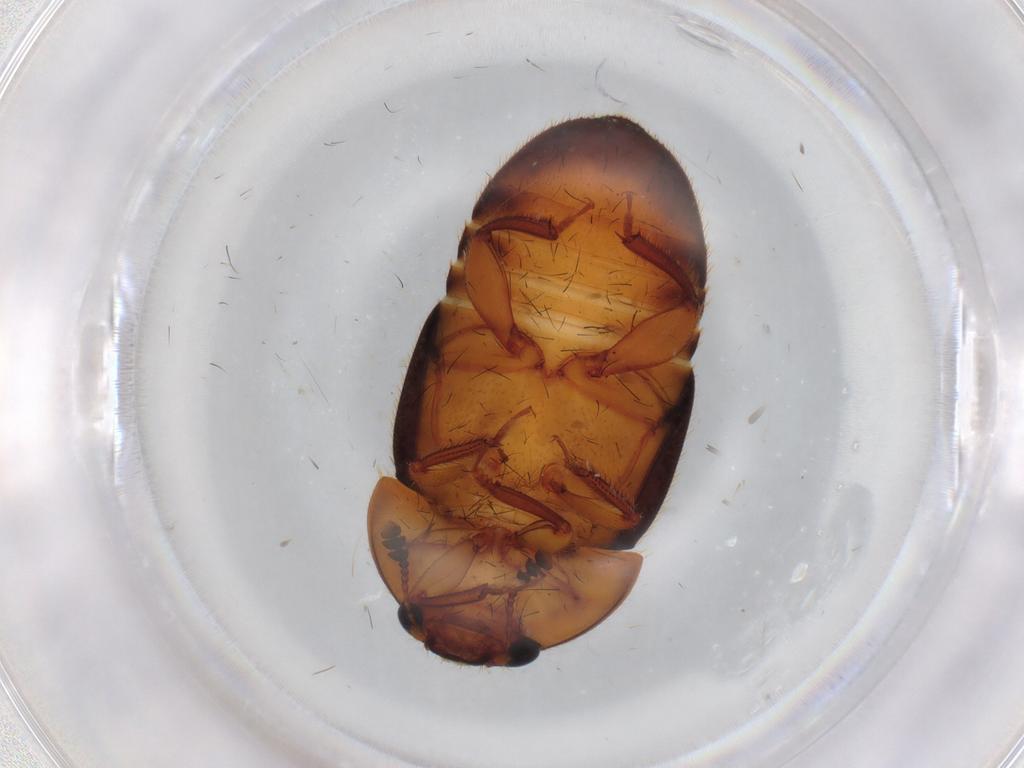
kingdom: Animalia
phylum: Arthropoda
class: Insecta
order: Coleoptera
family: Nitidulidae
